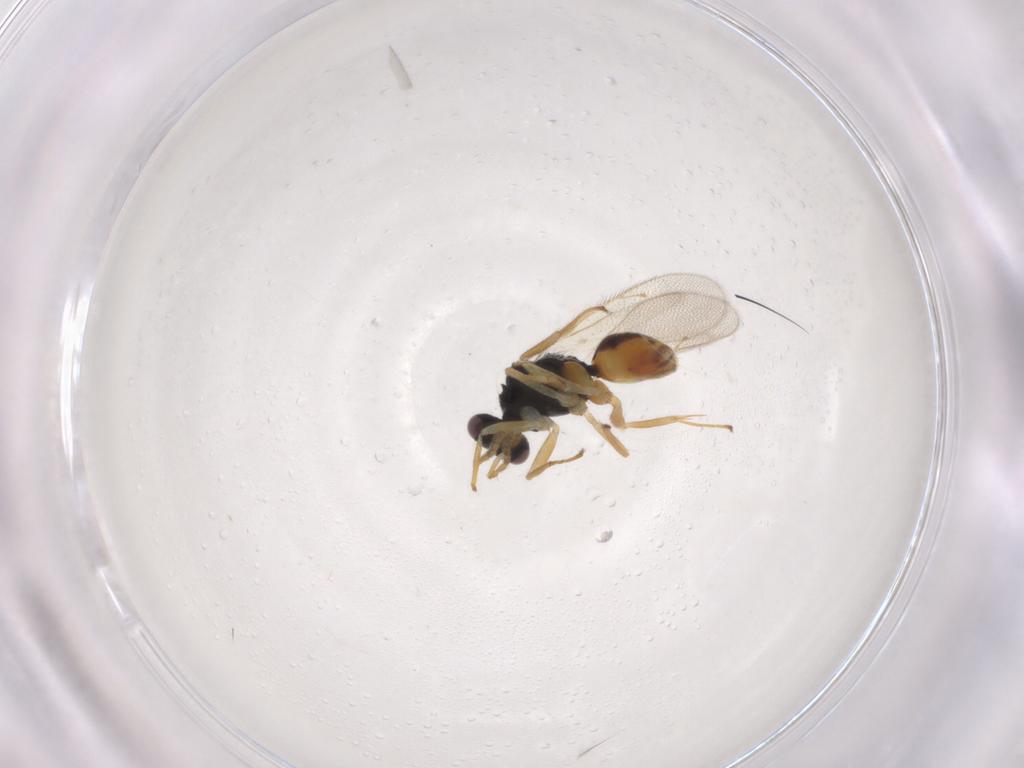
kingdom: Animalia
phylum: Arthropoda
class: Insecta
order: Hymenoptera
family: Eulophidae
